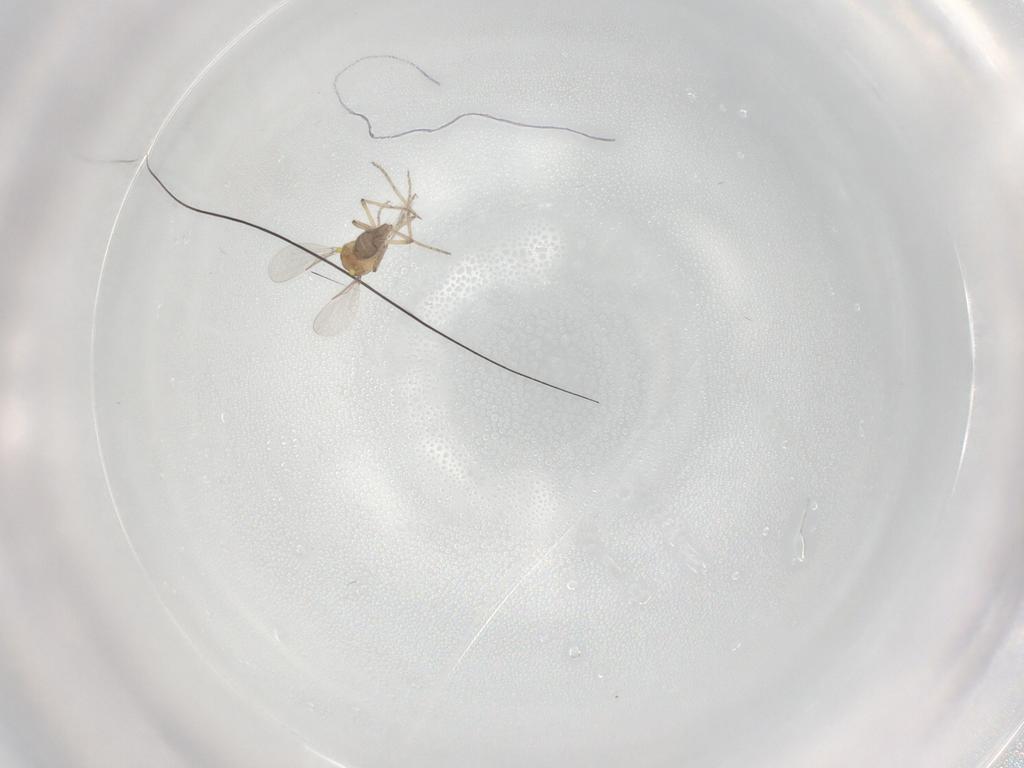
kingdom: Animalia
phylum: Arthropoda
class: Insecta
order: Diptera
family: Ceratopogonidae
